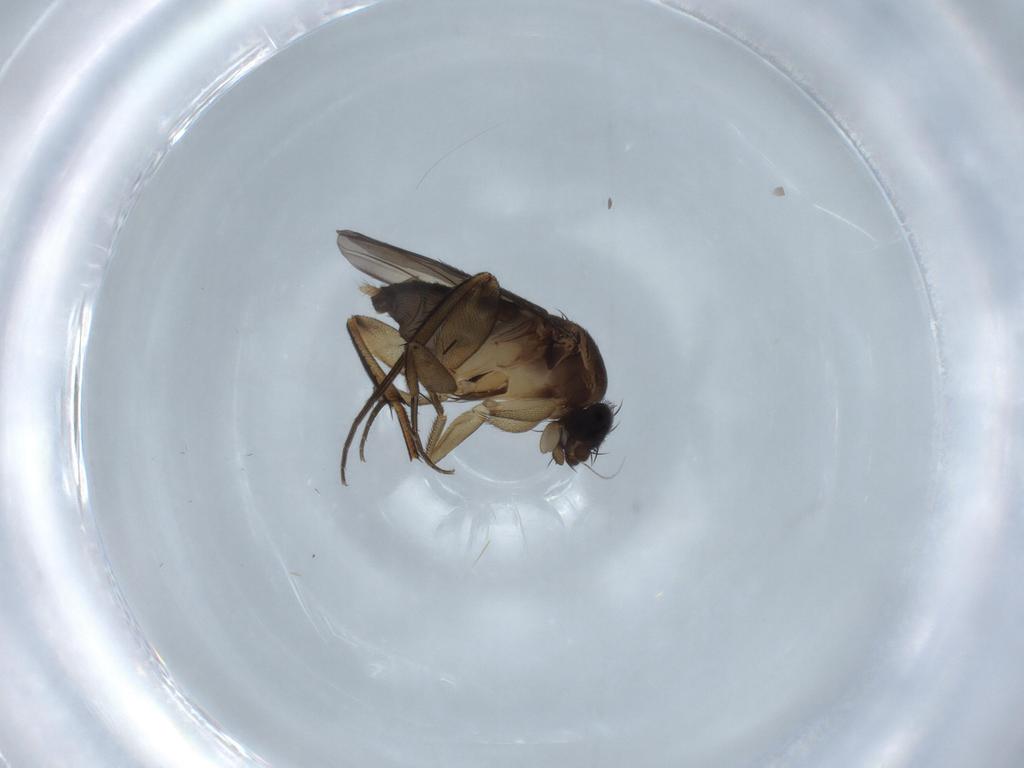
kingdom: Animalia
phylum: Arthropoda
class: Insecta
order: Diptera
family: Phoridae
